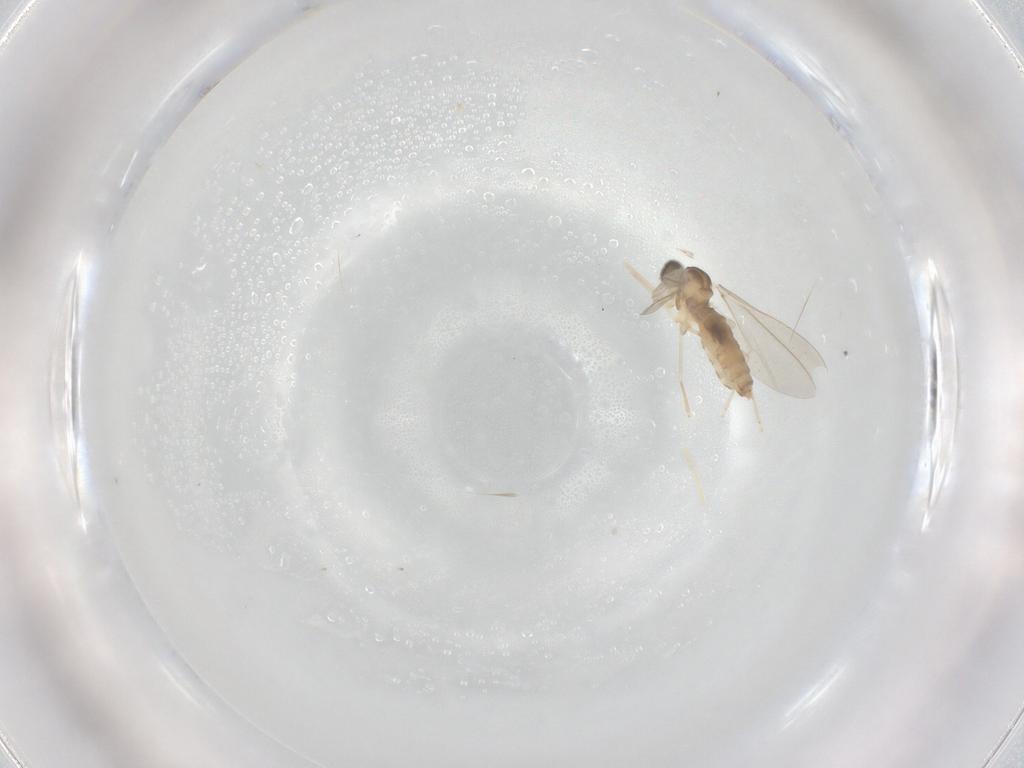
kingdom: Animalia
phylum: Arthropoda
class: Insecta
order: Diptera
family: Cecidomyiidae
